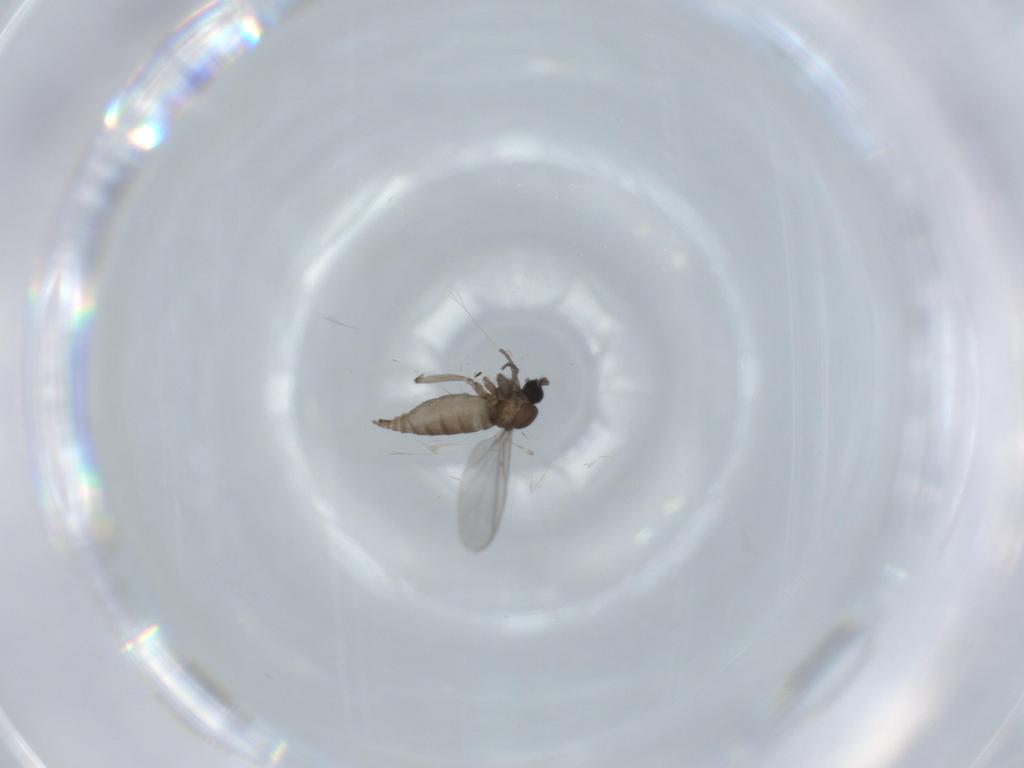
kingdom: Animalia
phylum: Arthropoda
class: Insecta
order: Diptera
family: Sciaridae
